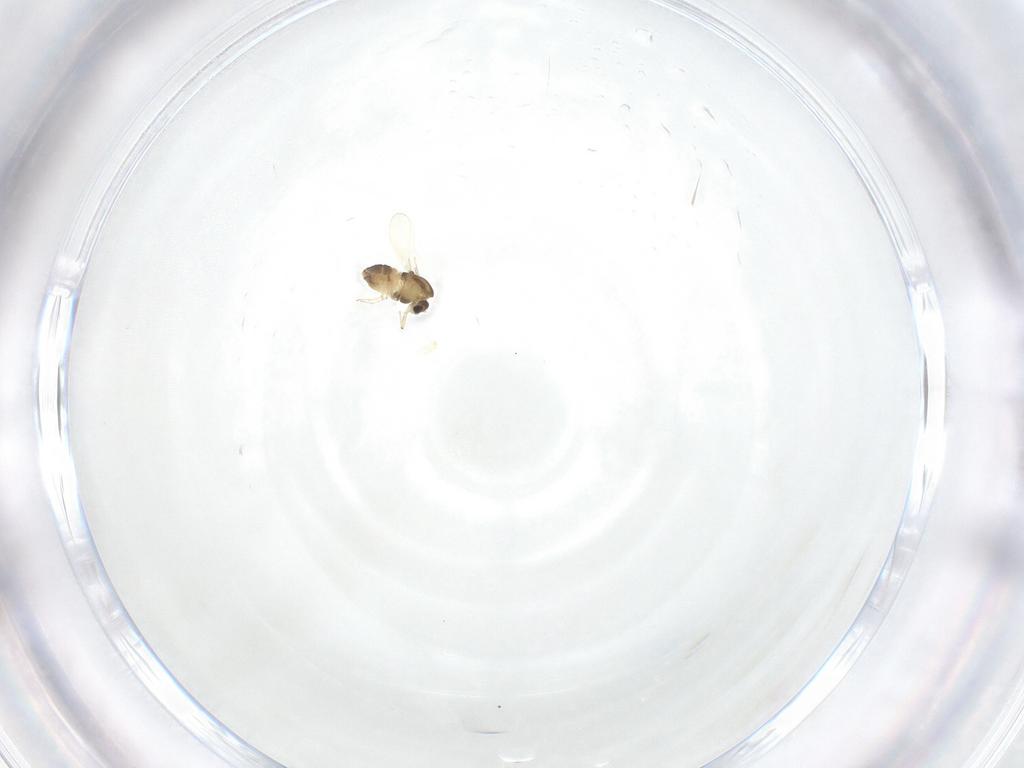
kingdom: Animalia
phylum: Arthropoda
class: Insecta
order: Diptera
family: Chironomidae
